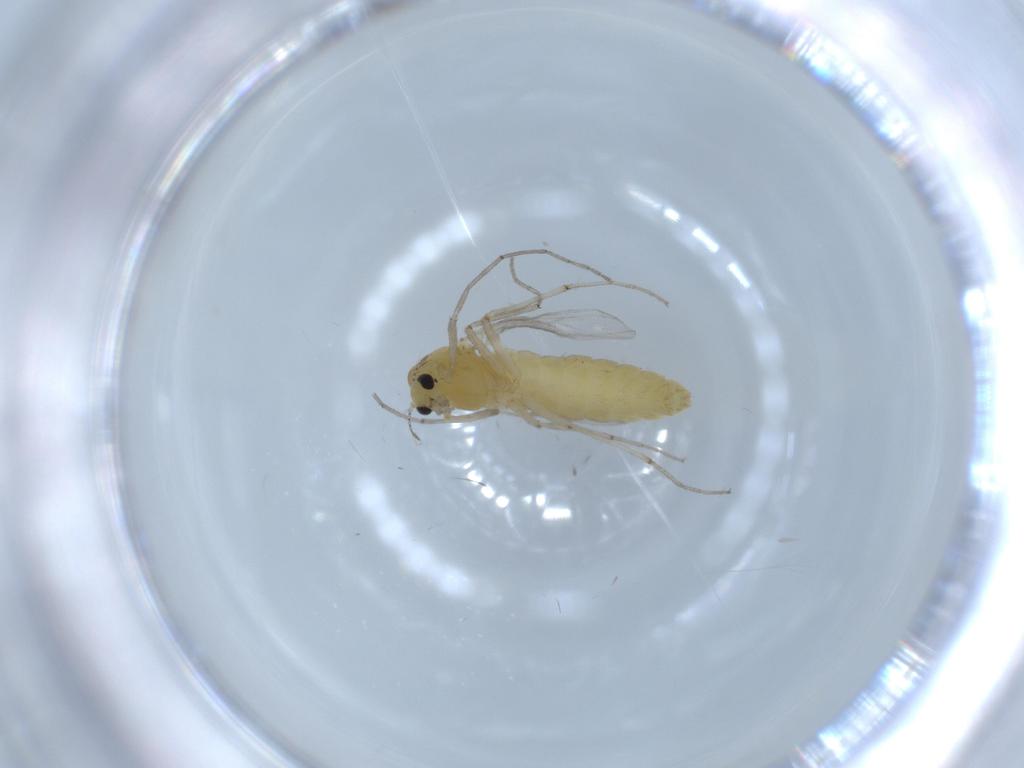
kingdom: Animalia
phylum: Arthropoda
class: Insecta
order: Diptera
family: Chironomidae
